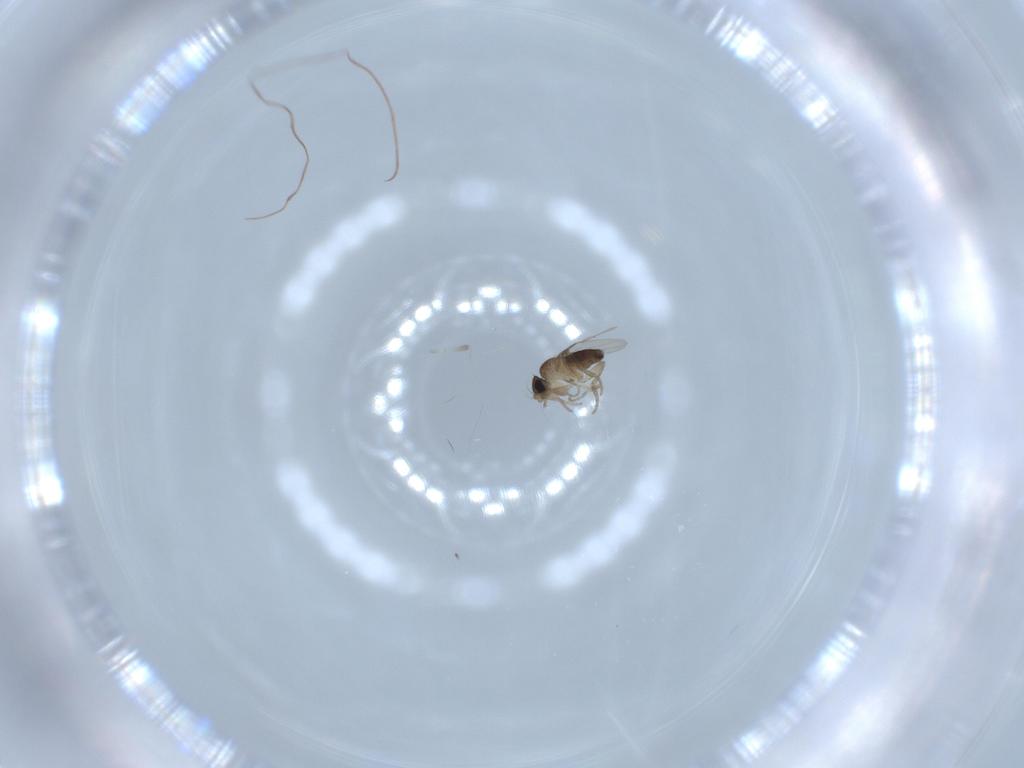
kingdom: Animalia
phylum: Arthropoda
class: Insecta
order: Diptera
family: Phoridae
